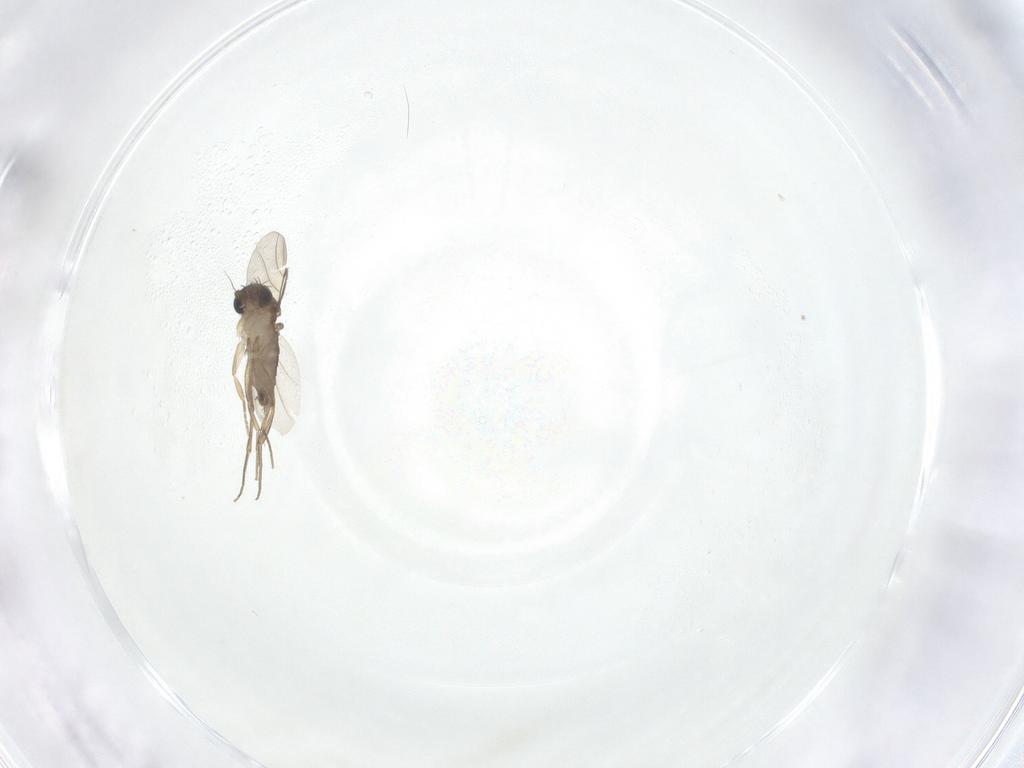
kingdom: Animalia
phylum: Arthropoda
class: Insecta
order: Diptera
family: Phoridae
